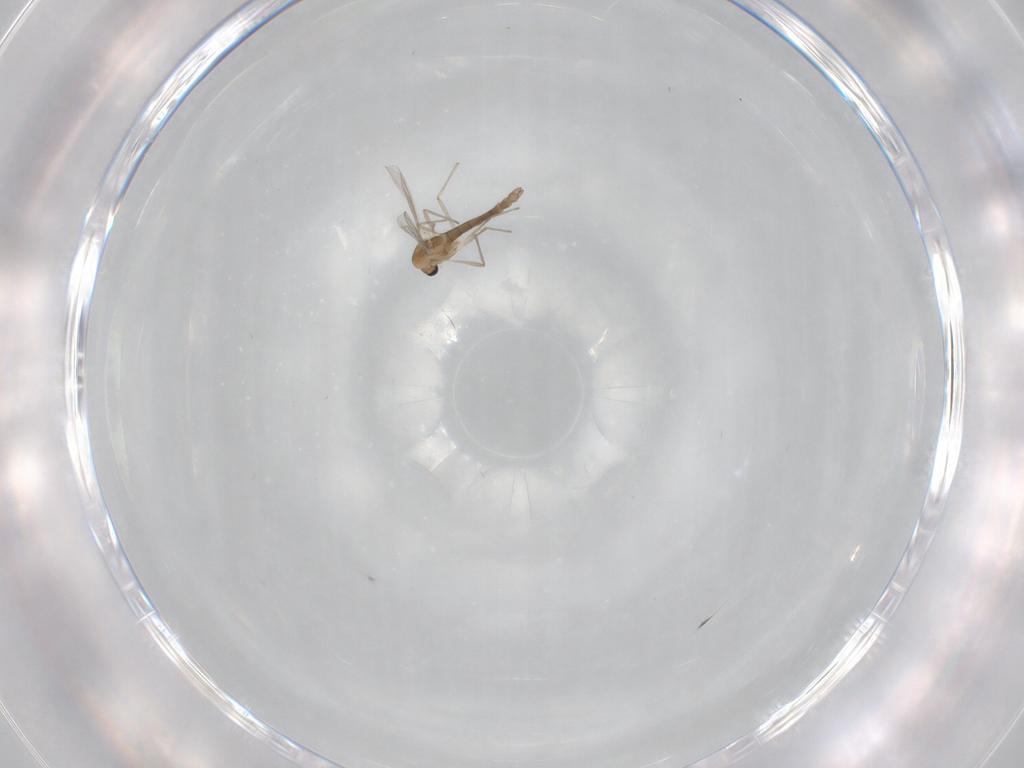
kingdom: Animalia
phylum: Arthropoda
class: Insecta
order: Diptera
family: Chironomidae
